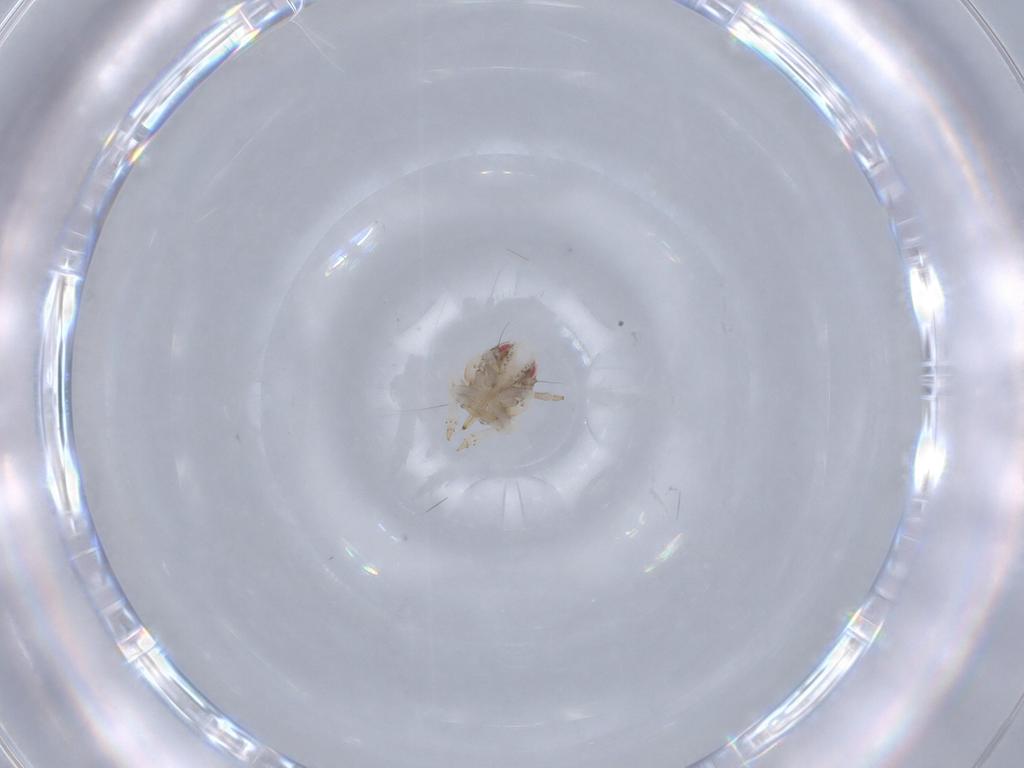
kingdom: Animalia
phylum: Arthropoda
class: Insecta
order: Hemiptera
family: Acanaloniidae
